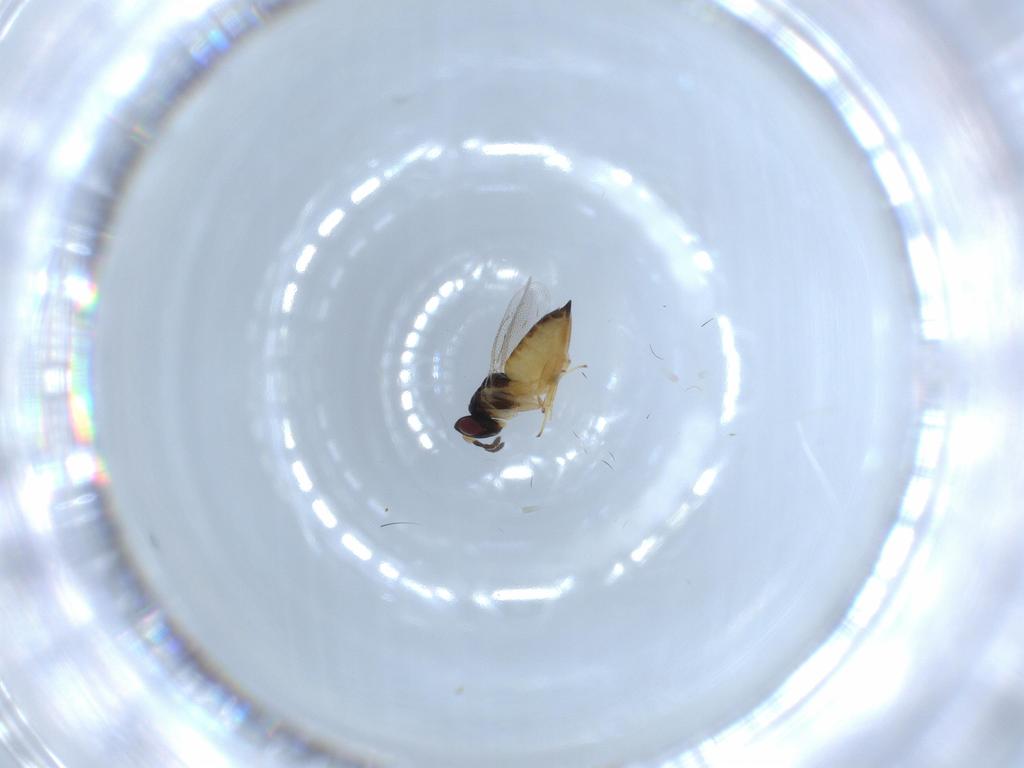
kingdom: Animalia
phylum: Arthropoda
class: Insecta
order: Hymenoptera
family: Eulophidae
